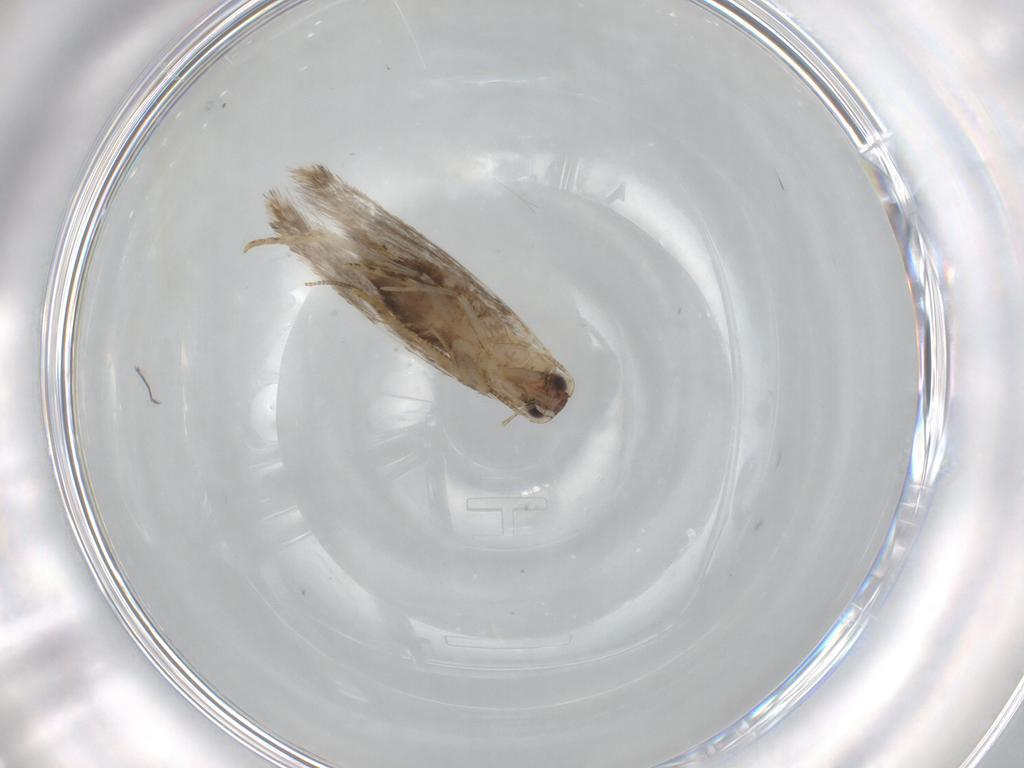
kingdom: Animalia
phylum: Arthropoda
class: Insecta
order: Lepidoptera
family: Tineidae
